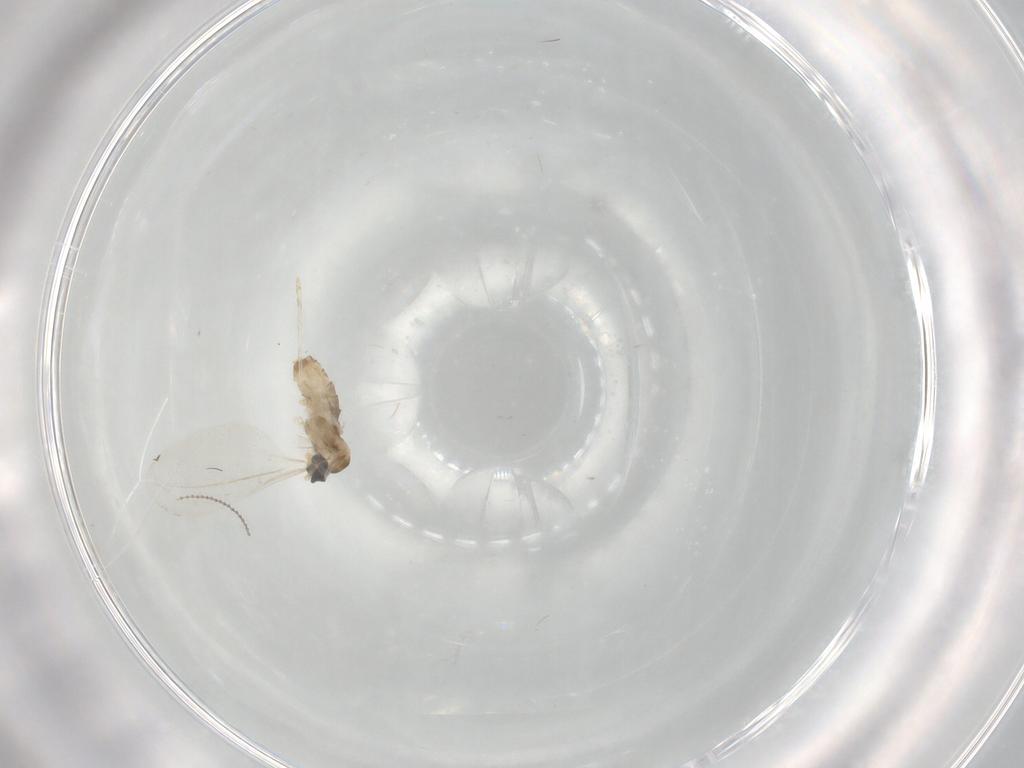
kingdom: Animalia
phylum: Arthropoda
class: Insecta
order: Diptera
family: Cecidomyiidae
